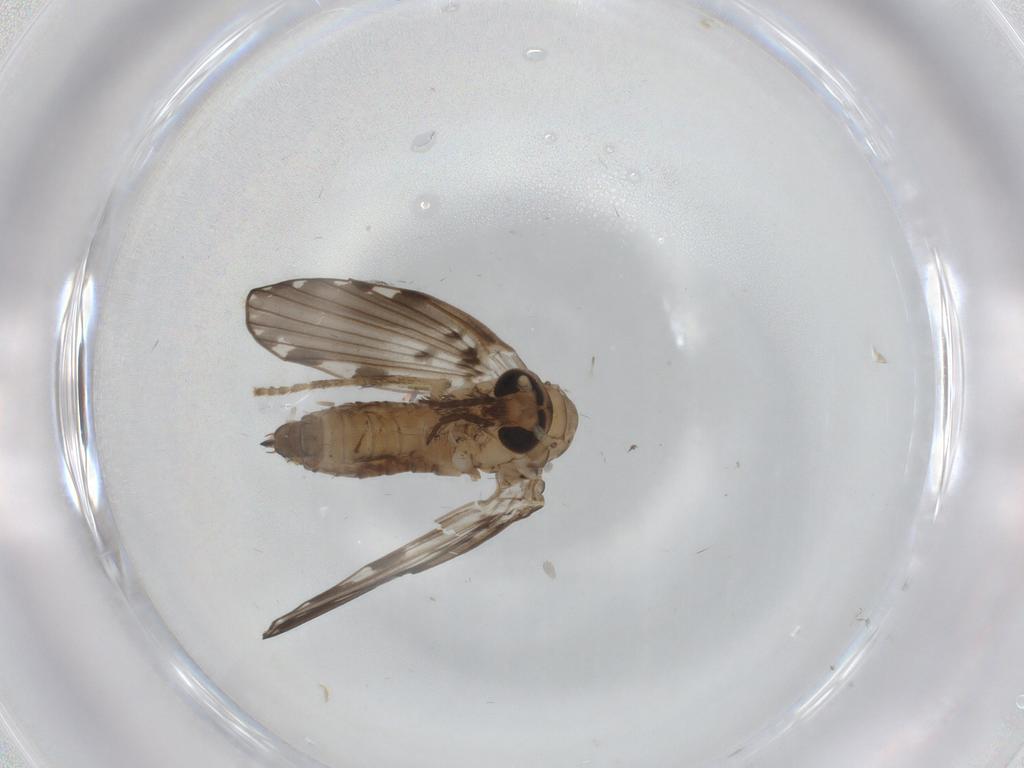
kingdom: Animalia
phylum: Arthropoda
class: Insecta
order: Diptera
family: Psychodidae
